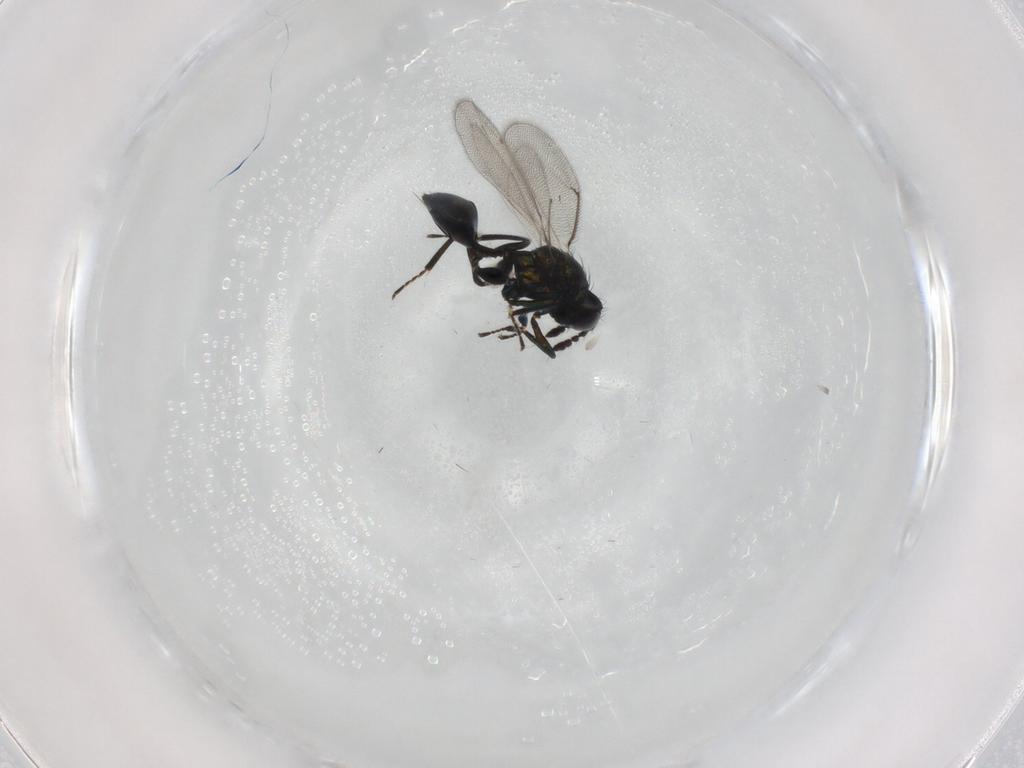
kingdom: Animalia
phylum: Arthropoda
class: Insecta
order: Hymenoptera
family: Eulophidae
